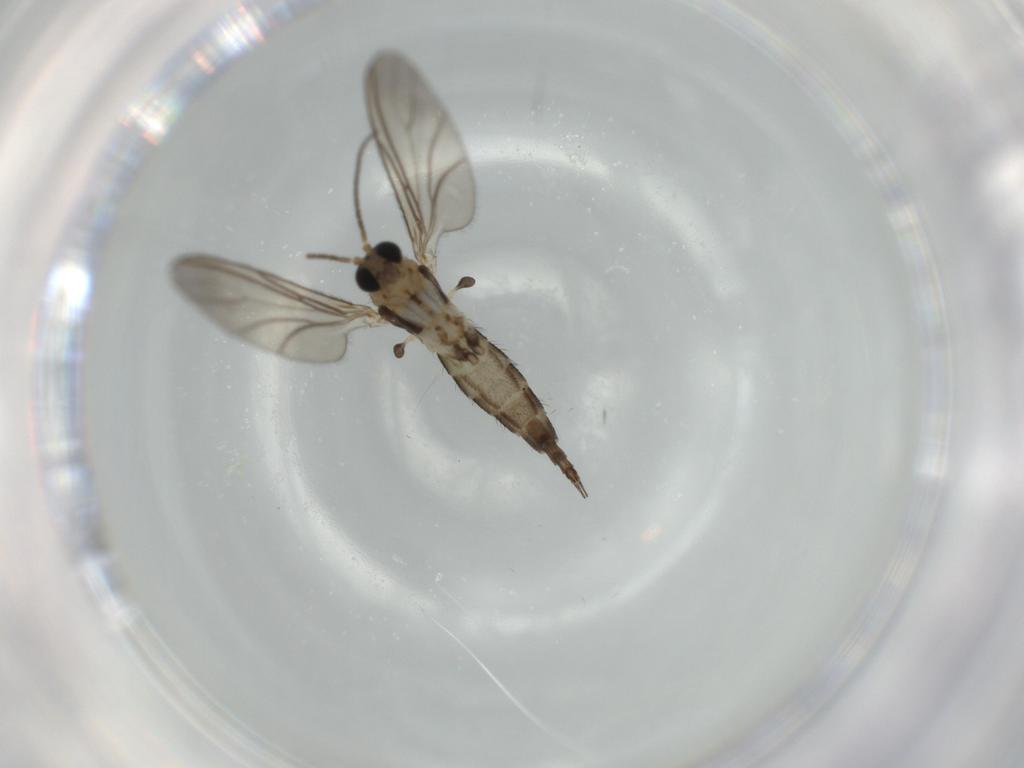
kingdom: Animalia
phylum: Arthropoda
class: Insecta
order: Diptera
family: Sciaridae
